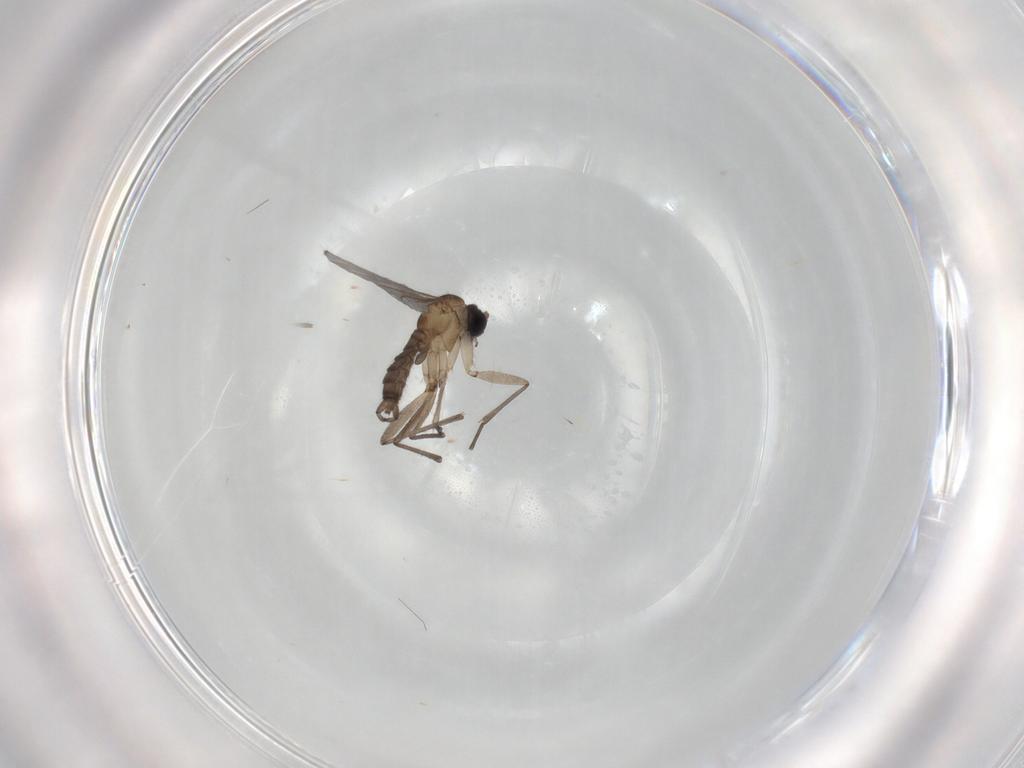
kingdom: Animalia
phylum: Arthropoda
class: Insecta
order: Diptera
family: Sciaridae
